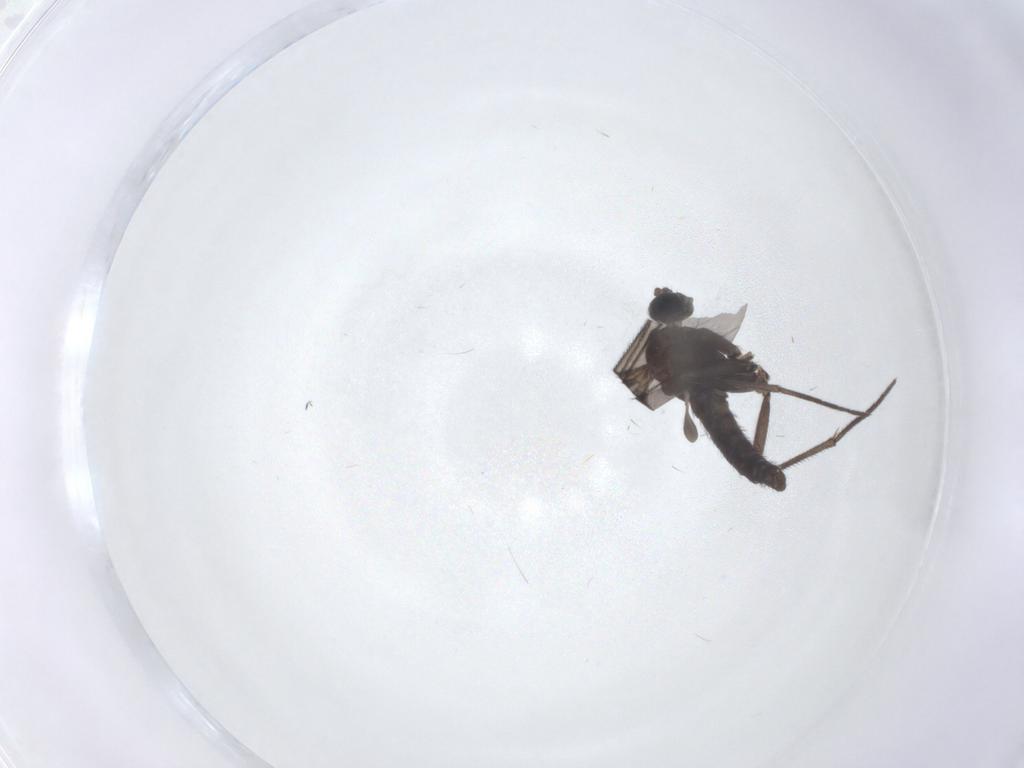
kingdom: Animalia
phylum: Arthropoda
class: Insecta
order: Diptera
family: Sciaridae
